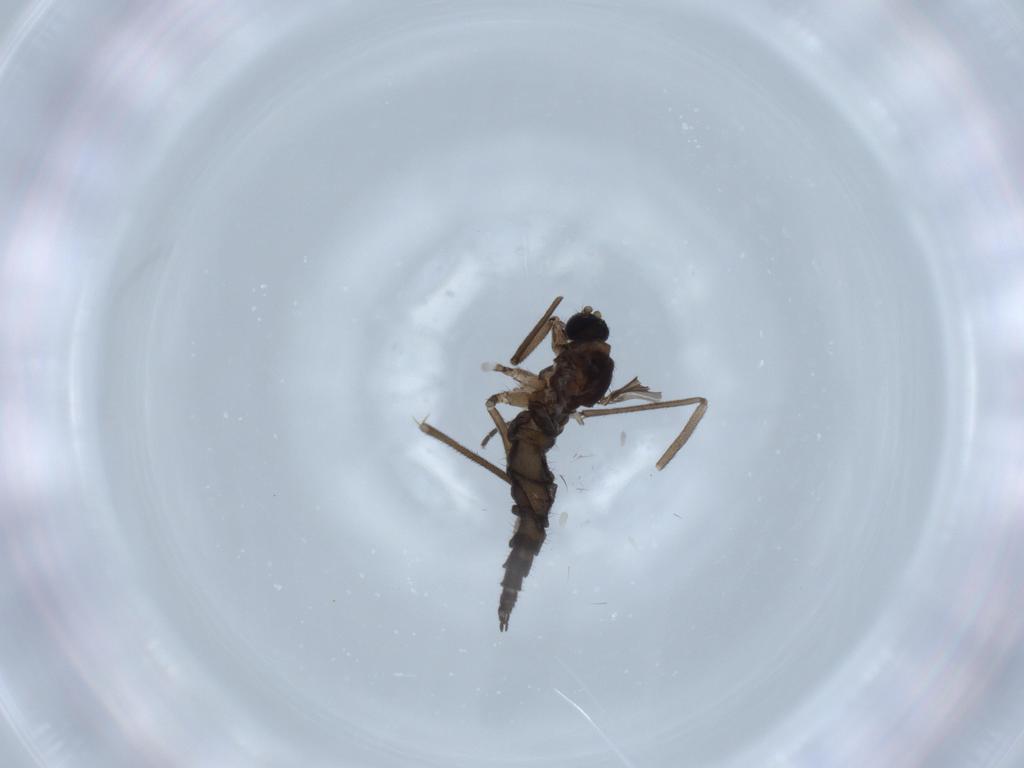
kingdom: Animalia
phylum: Arthropoda
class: Insecta
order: Diptera
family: Sciaridae
